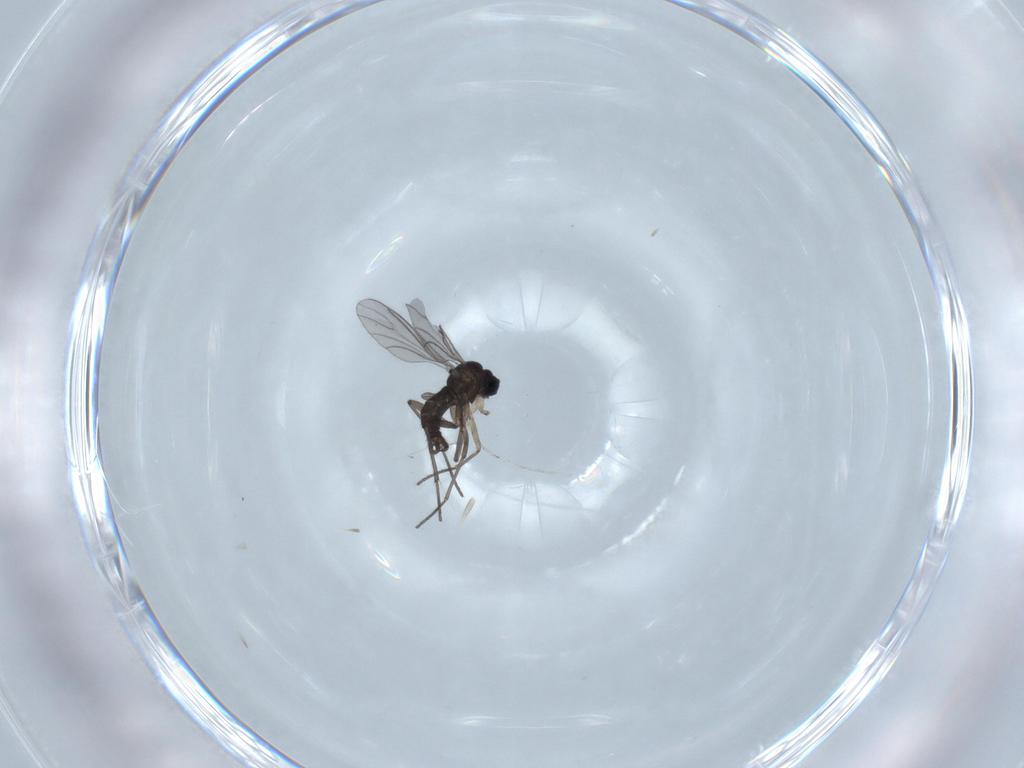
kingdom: Animalia
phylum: Arthropoda
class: Insecta
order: Diptera
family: Sciaridae
